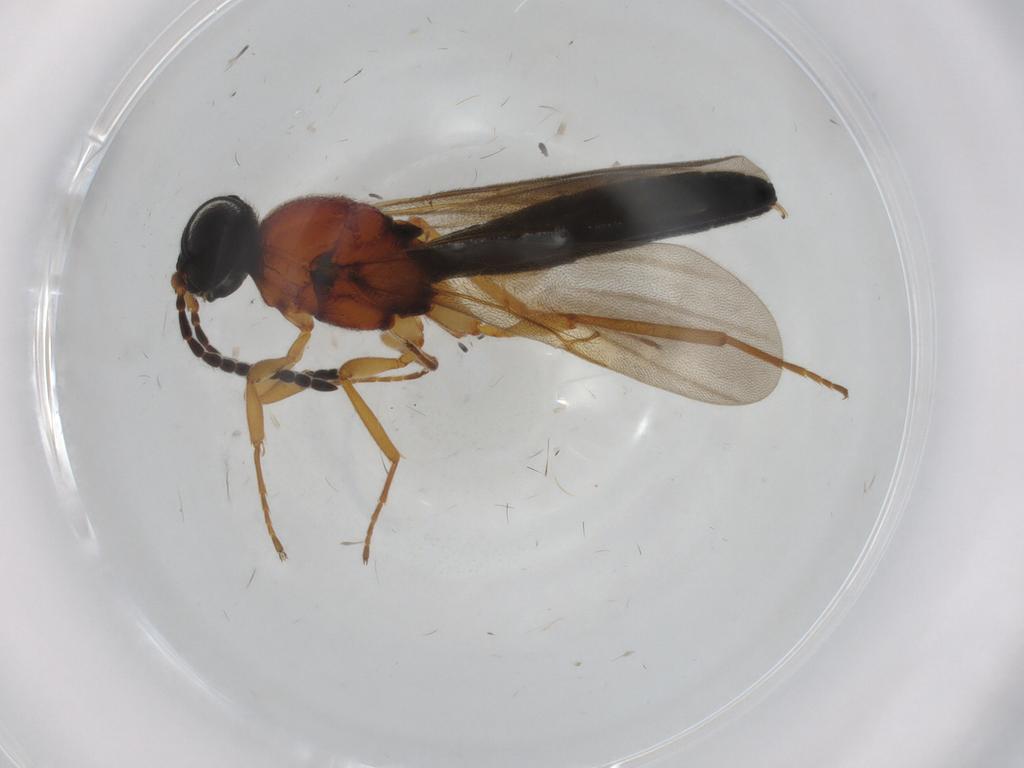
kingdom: Animalia
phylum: Arthropoda
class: Insecta
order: Hymenoptera
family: Scelionidae
